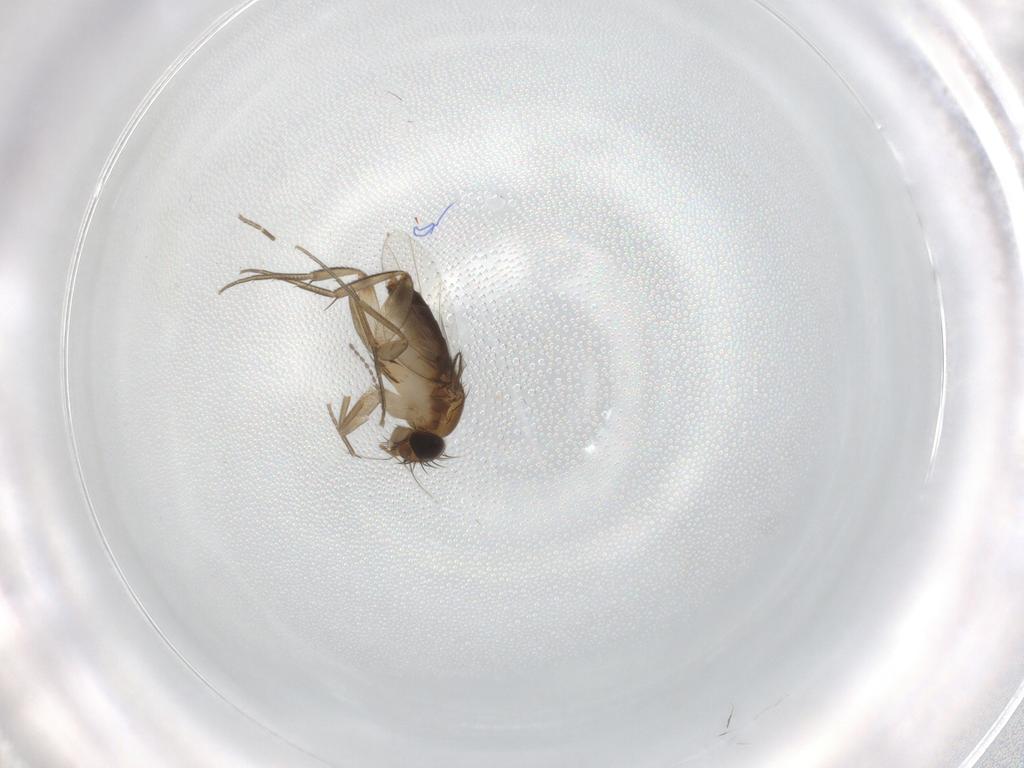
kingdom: Animalia
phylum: Arthropoda
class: Insecta
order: Diptera
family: Cecidomyiidae
